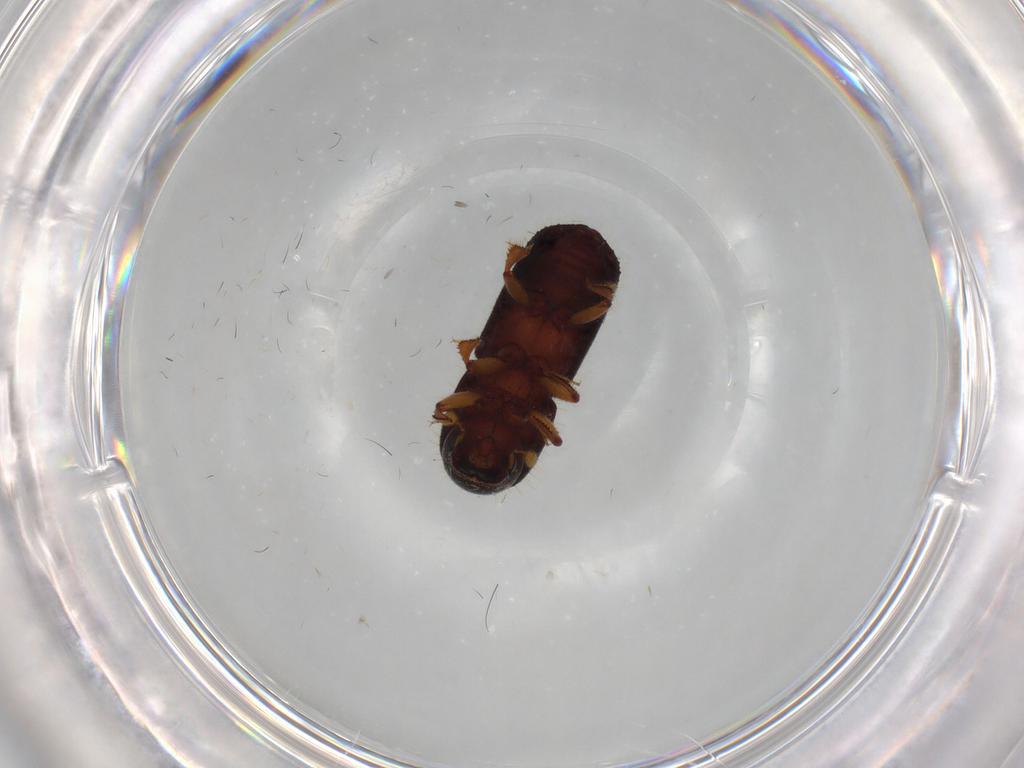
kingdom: Animalia
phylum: Arthropoda
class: Insecta
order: Coleoptera
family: Curculionidae
